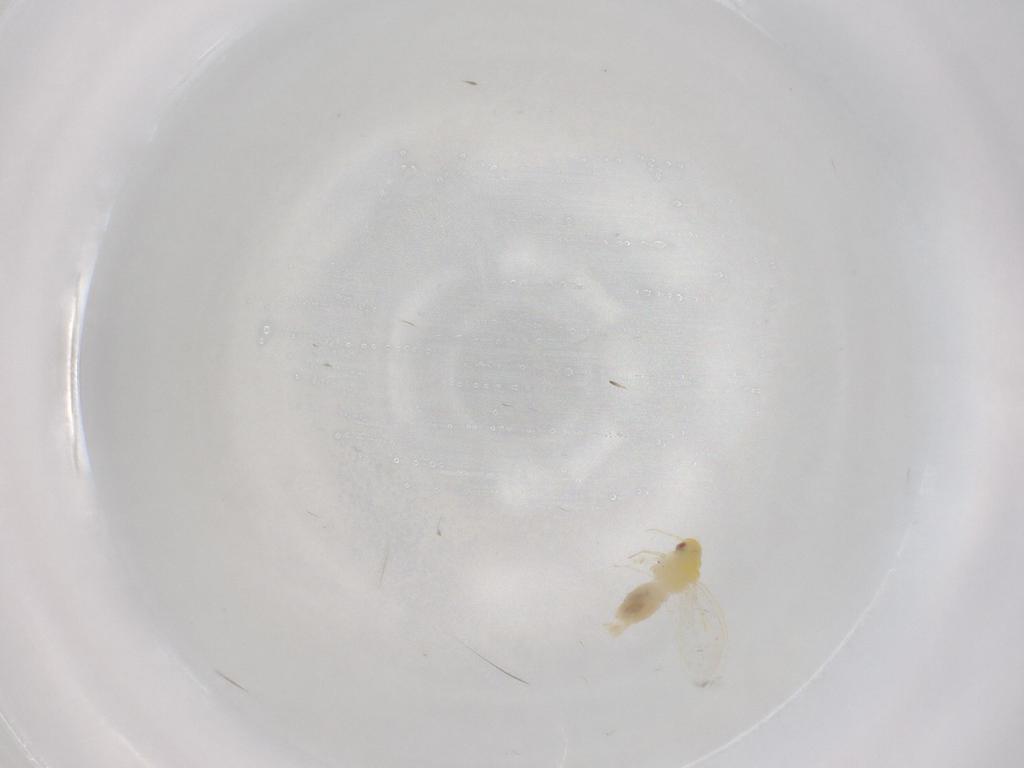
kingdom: Animalia
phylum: Arthropoda
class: Insecta
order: Hemiptera
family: Aleyrodidae
